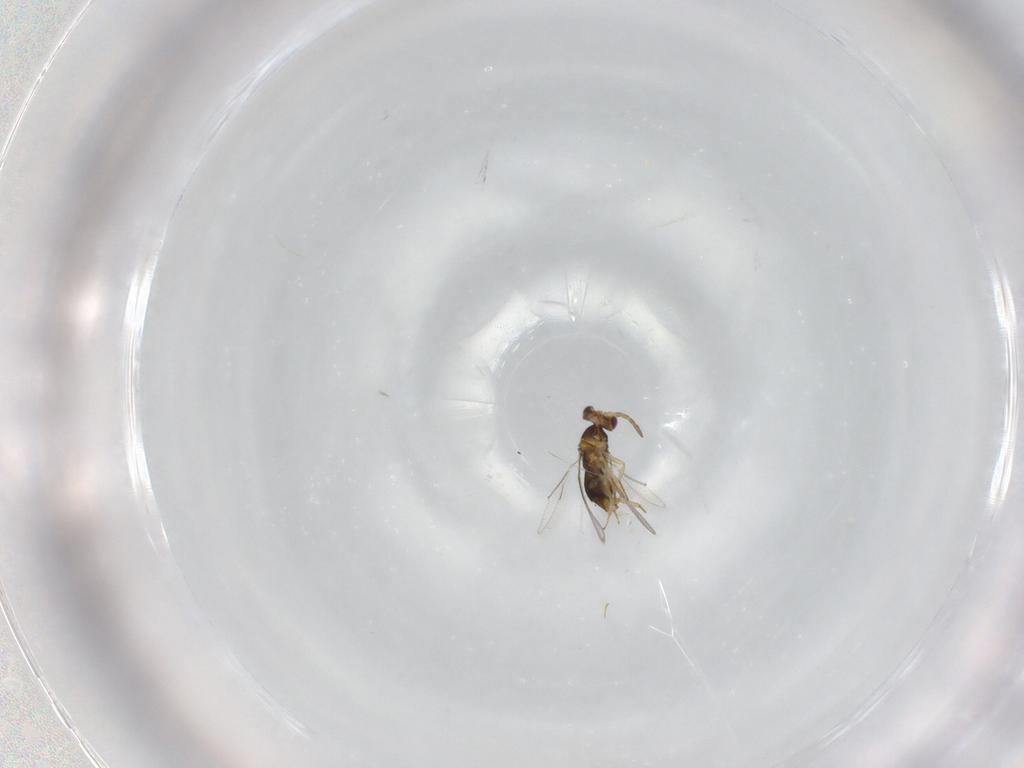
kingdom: Animalia
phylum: Arthropoda
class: Insecta
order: Hymenoptera
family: Aphelinidae
